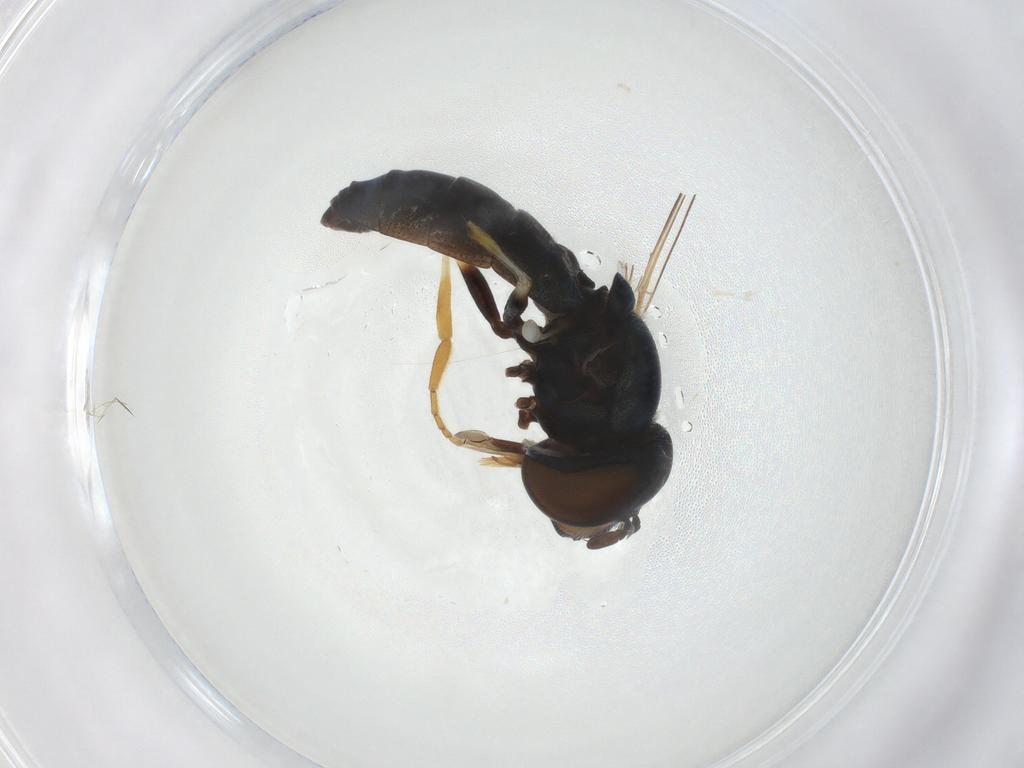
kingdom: Animalia
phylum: Arthropoda
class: Insecta
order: Diptera
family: Syrphidae
